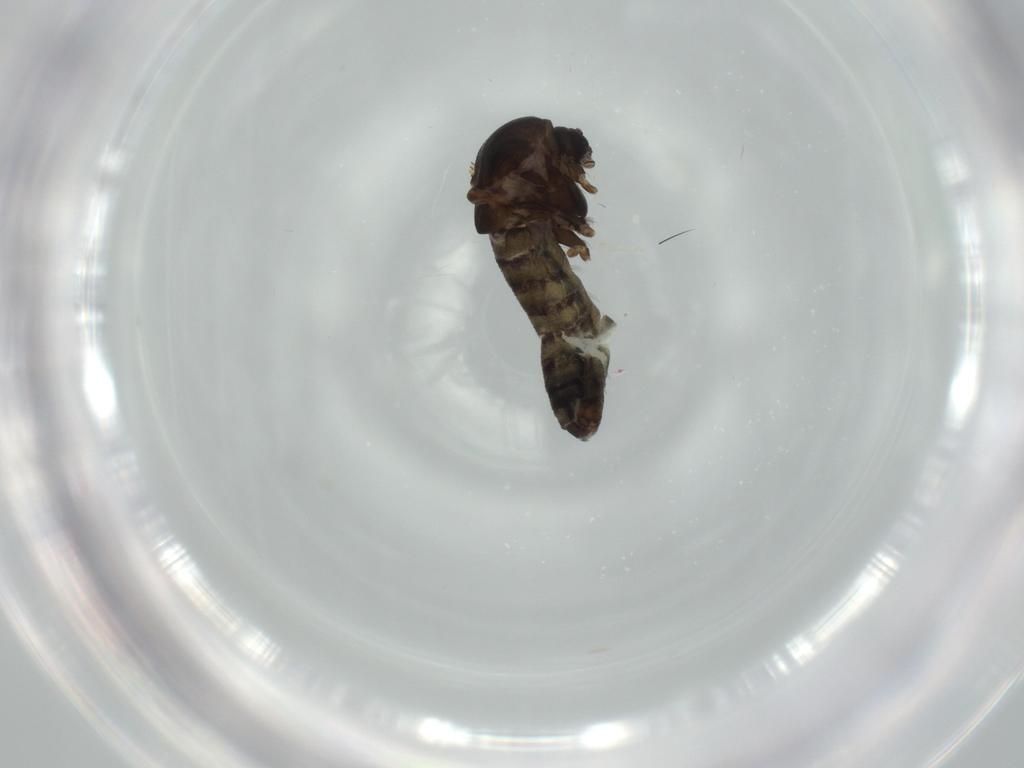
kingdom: Animalia
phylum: Arthropoda
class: Insecta
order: Diptera
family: Chironomidae
